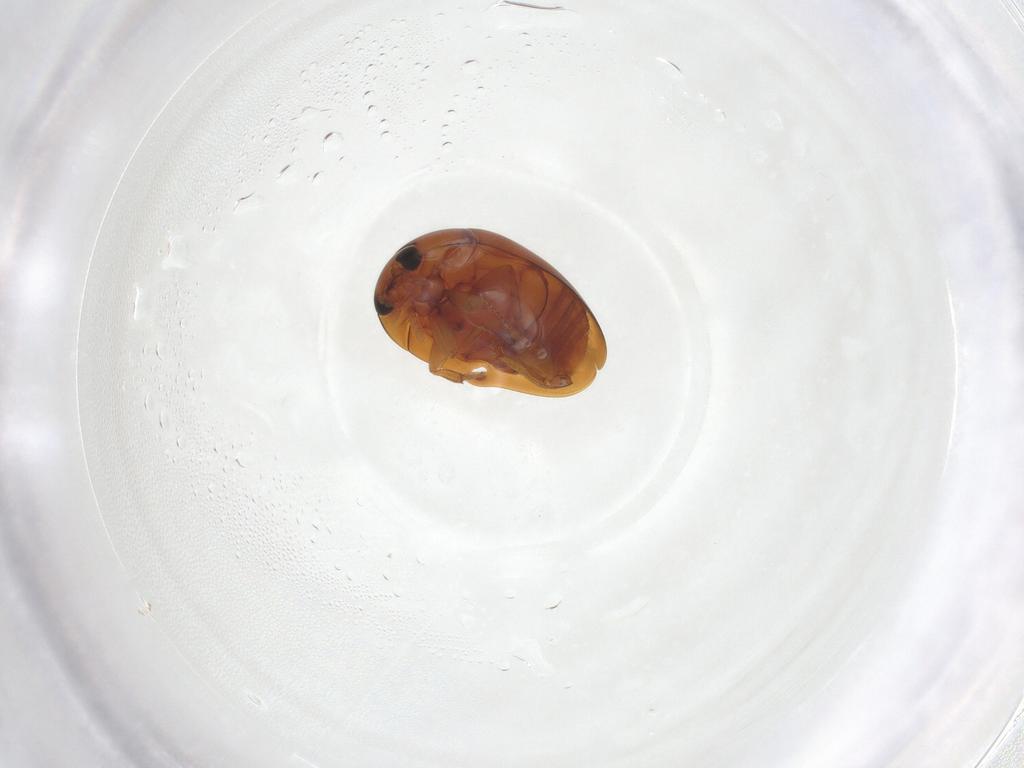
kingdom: Animalia
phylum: Arthropoda
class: Insecta
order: Coleoptera
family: Phalacridae
